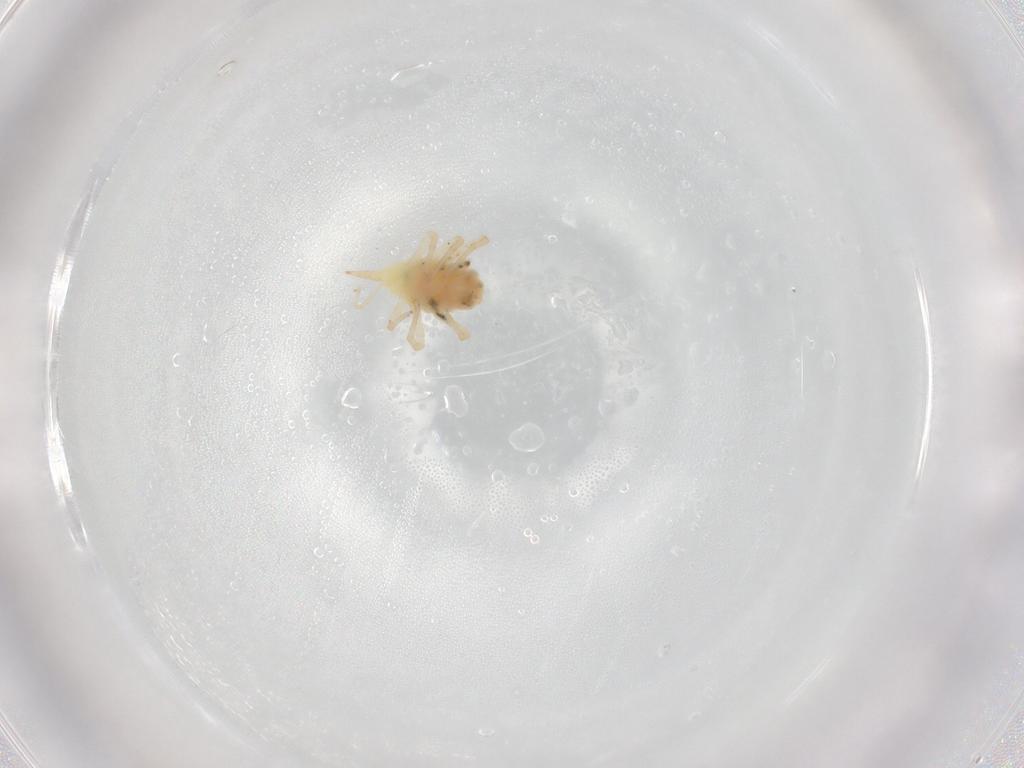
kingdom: Animalia
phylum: Arthropoda
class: Arachnida
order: Trombidiformes
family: Bdellidae
